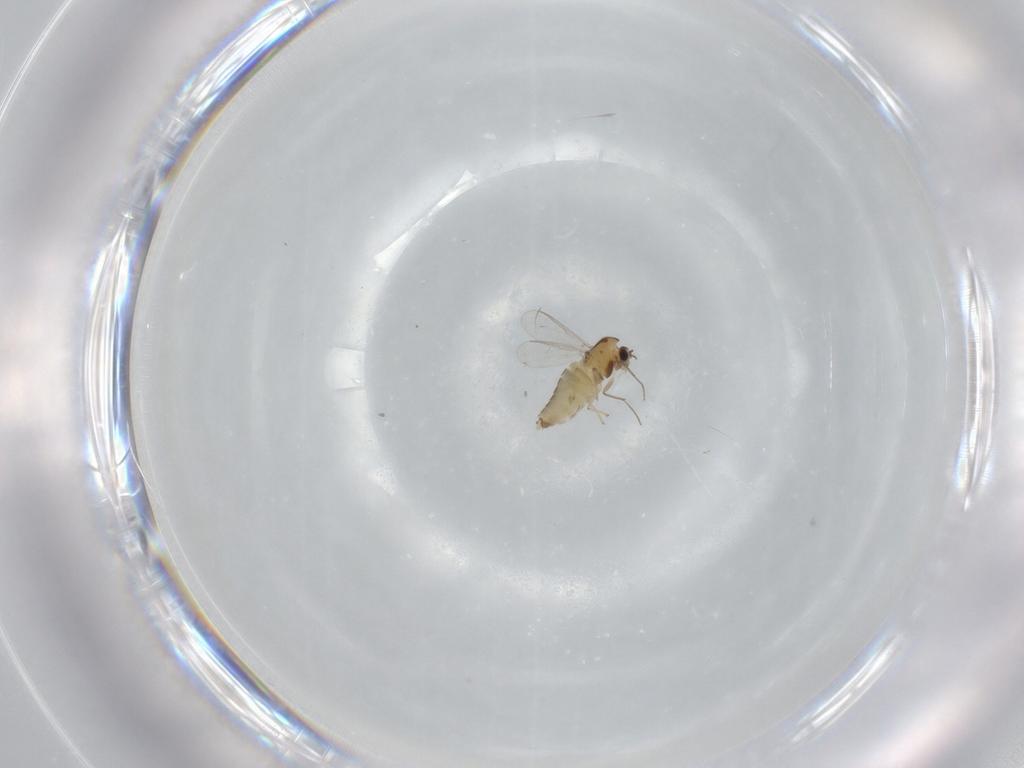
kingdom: Animalia
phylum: Arthropoda
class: Insecta
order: Diptera
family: Chironomidae
